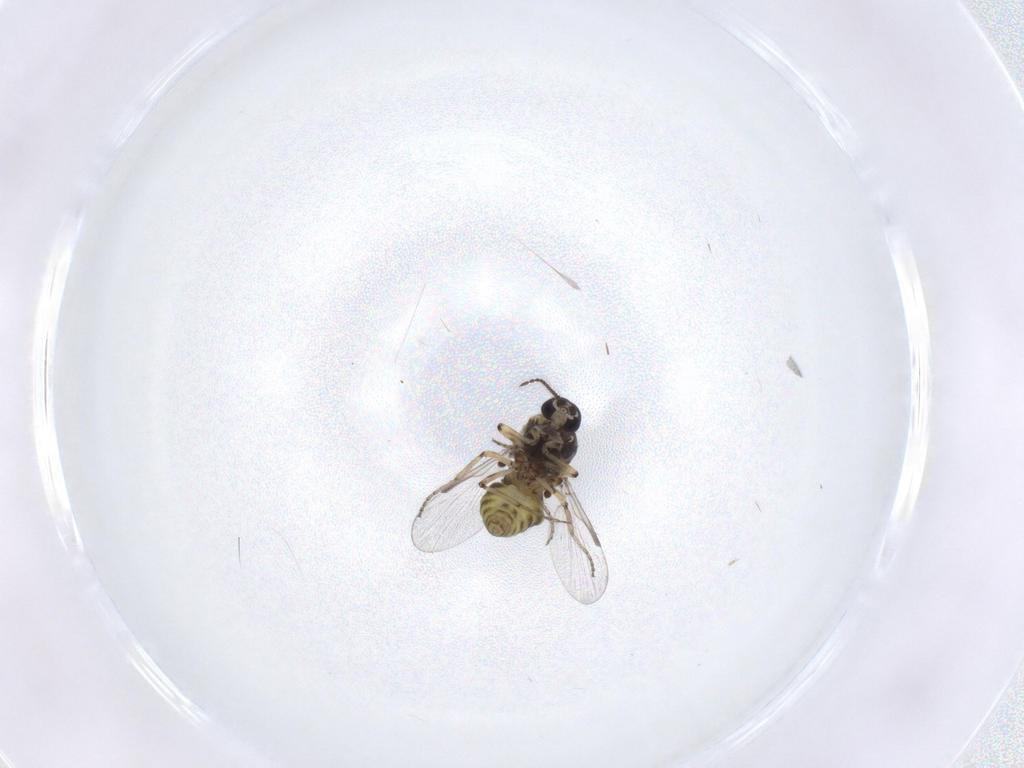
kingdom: Animalia
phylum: Arthropoda
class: Insecta
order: Diptera
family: Ceratopogonidae
